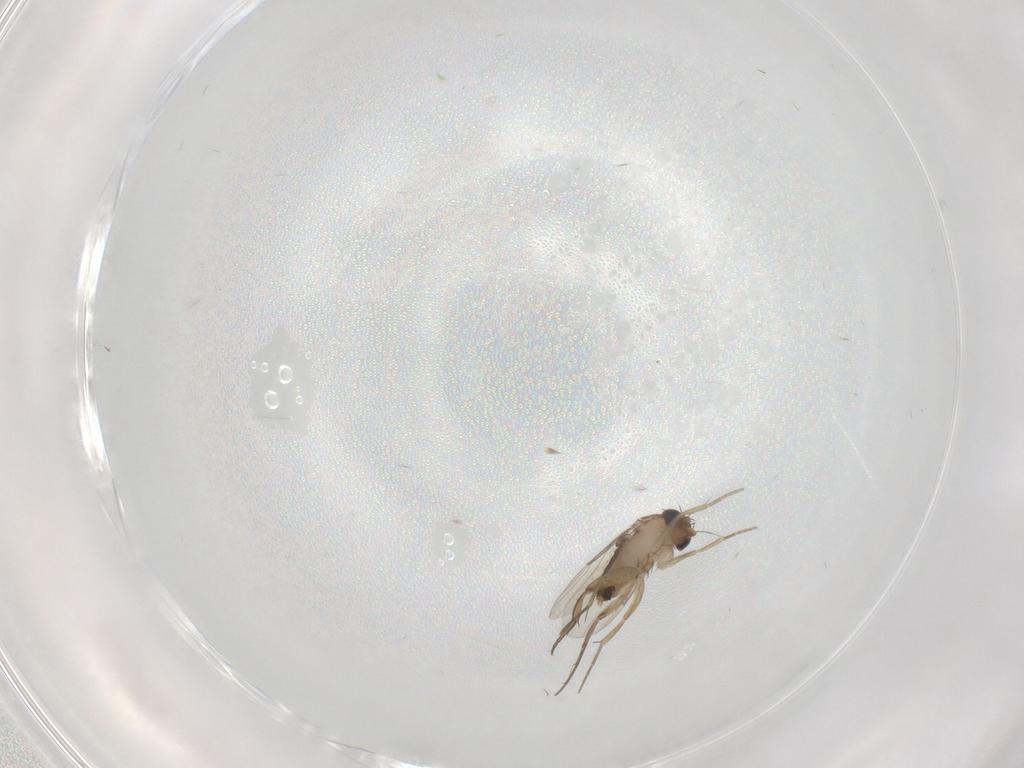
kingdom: Animalia
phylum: Arthropoda
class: Insecta
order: Diptera
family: Phoridae
